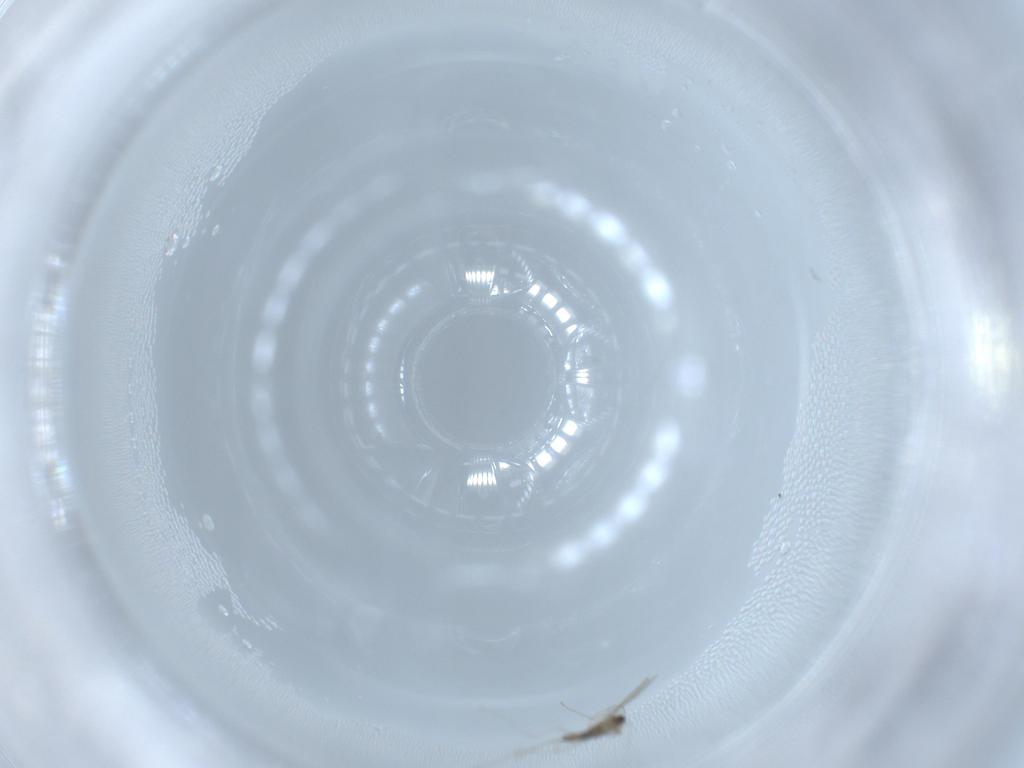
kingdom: Animalia
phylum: Arthropoda
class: Insecta
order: Diptera
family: Cecidomyiidae
